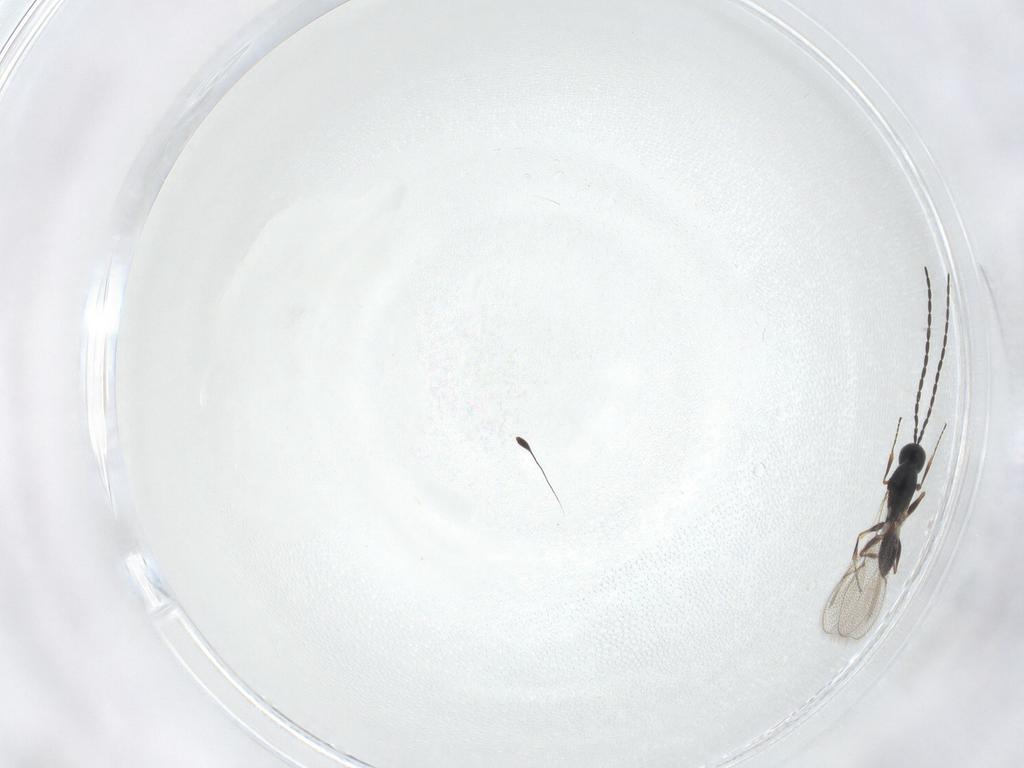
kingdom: Animalia
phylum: Arthropoda
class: Insecta
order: Hymenoptera
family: Figitidae
